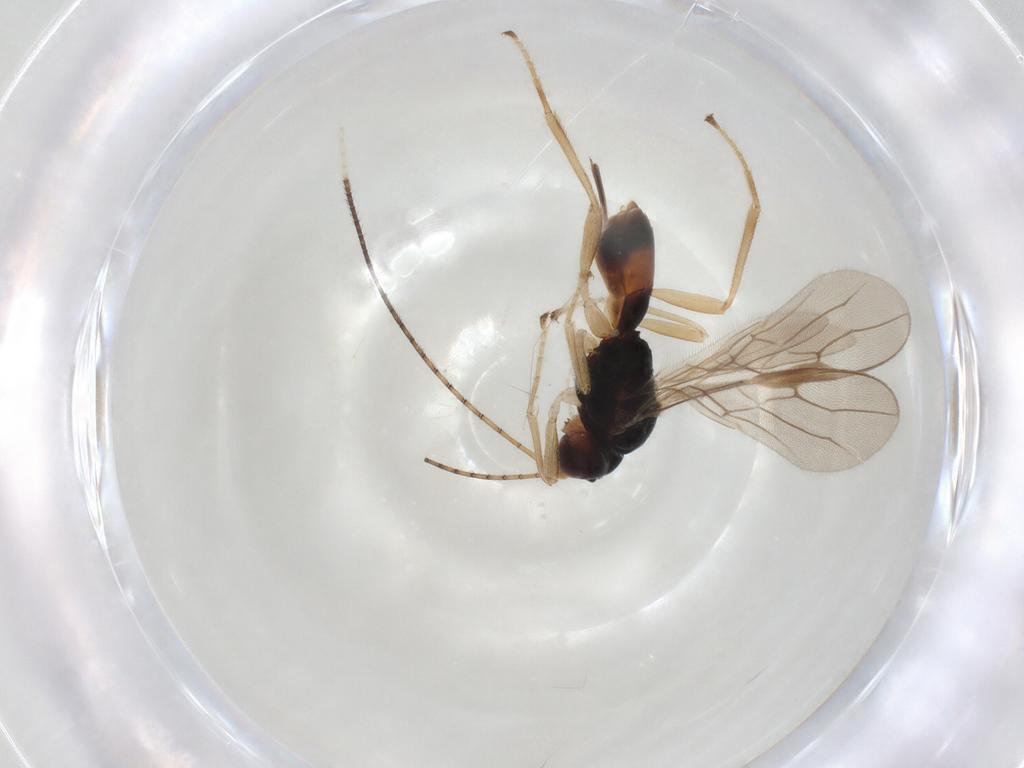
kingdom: Animalia
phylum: Arthropoda
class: Insecta
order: Hymenoptera
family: Braconidae
